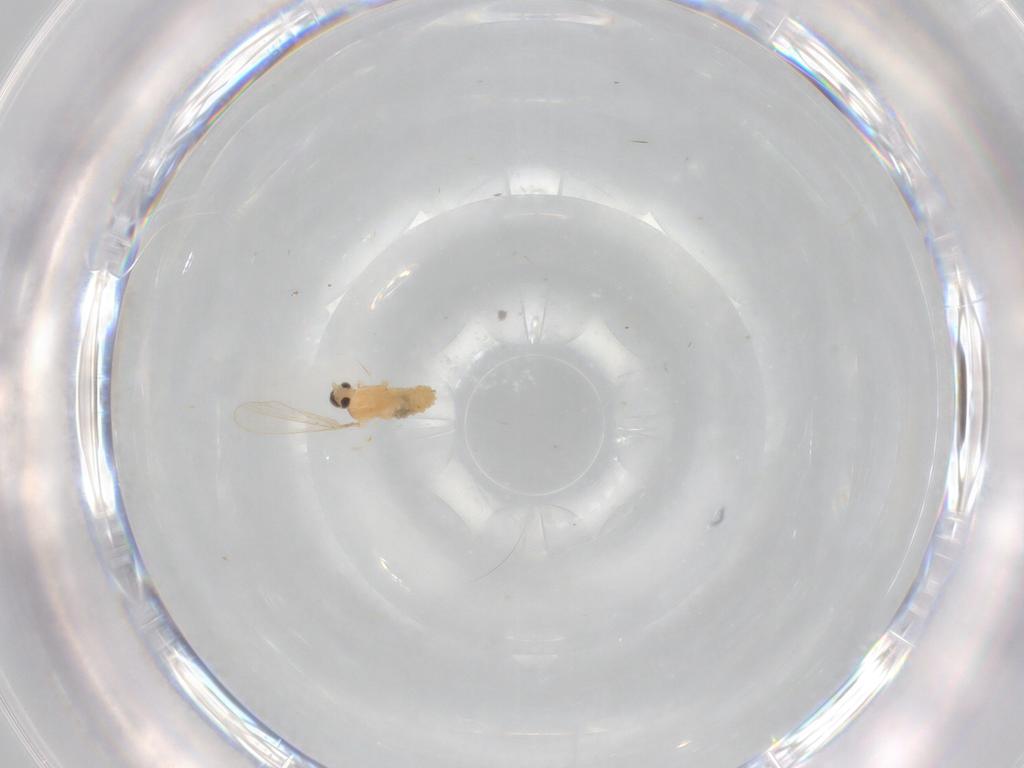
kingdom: Animalia
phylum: Arthropoda
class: Insecta
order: Diptera
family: Cecidomyiidae
